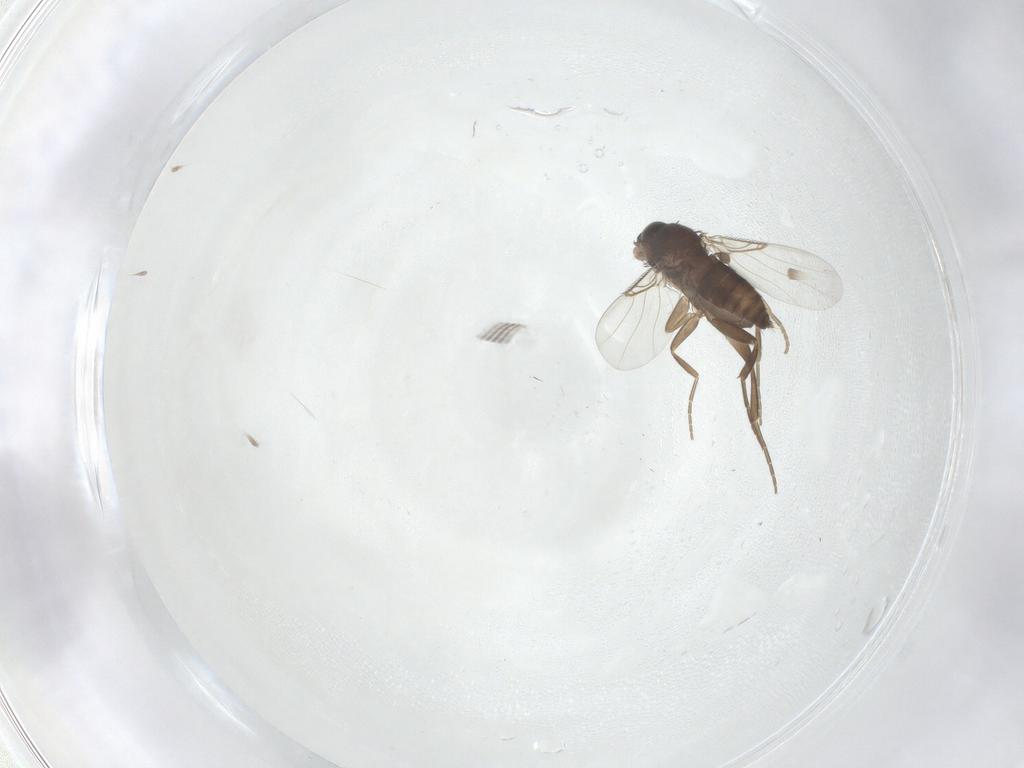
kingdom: Animalia
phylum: Arthropoda
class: Insecta
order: Diptera
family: Phoridae
